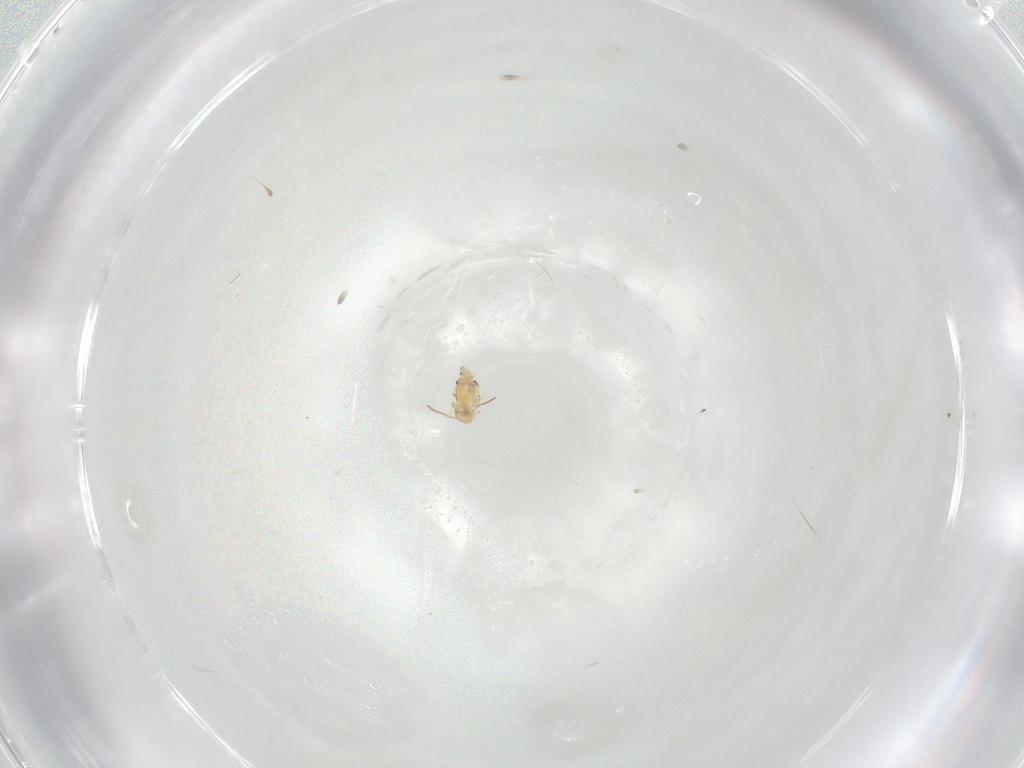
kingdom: Animalia
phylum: Arthropoda
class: Collembola
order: Symphypleona
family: Bourletiellidae
